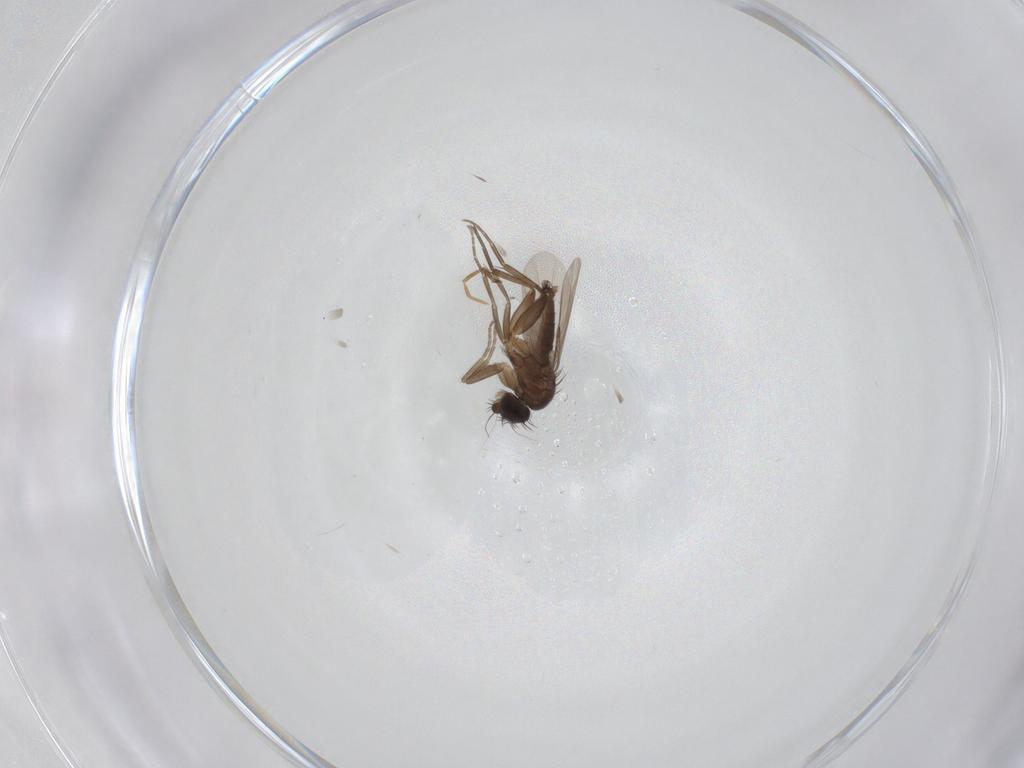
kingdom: Animalia
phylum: Arthropoda
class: Insecta
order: Diptera
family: Phoridae
